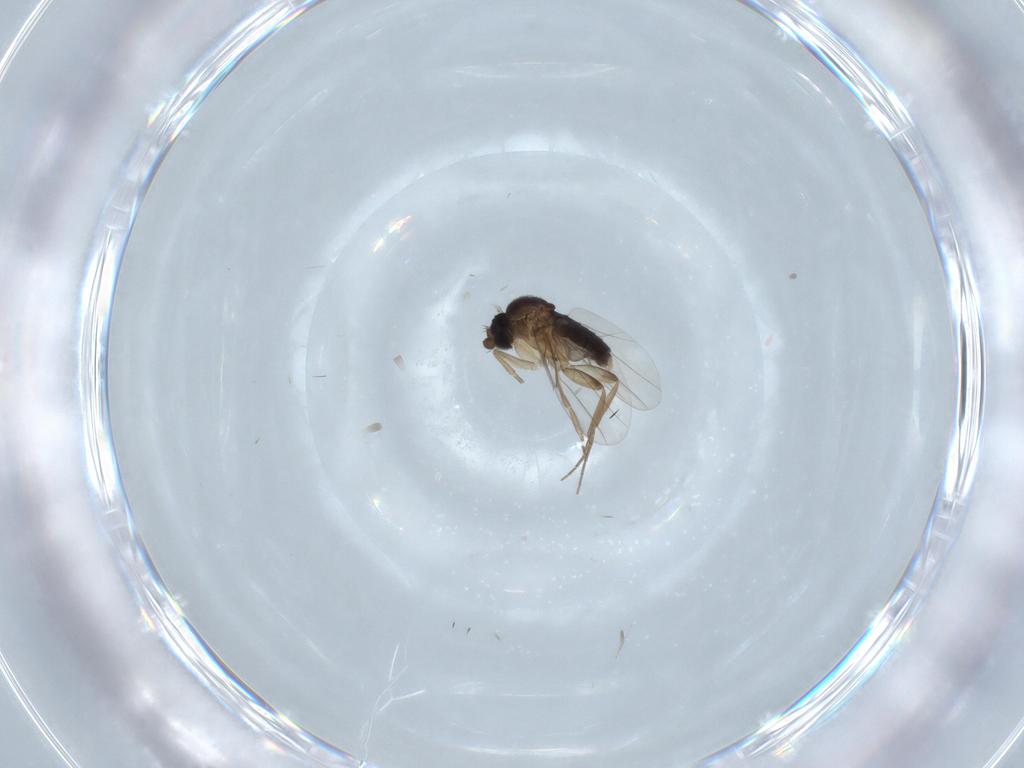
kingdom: Animalia
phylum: Arthropoda
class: Insecta
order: Diptera
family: Phoridae
